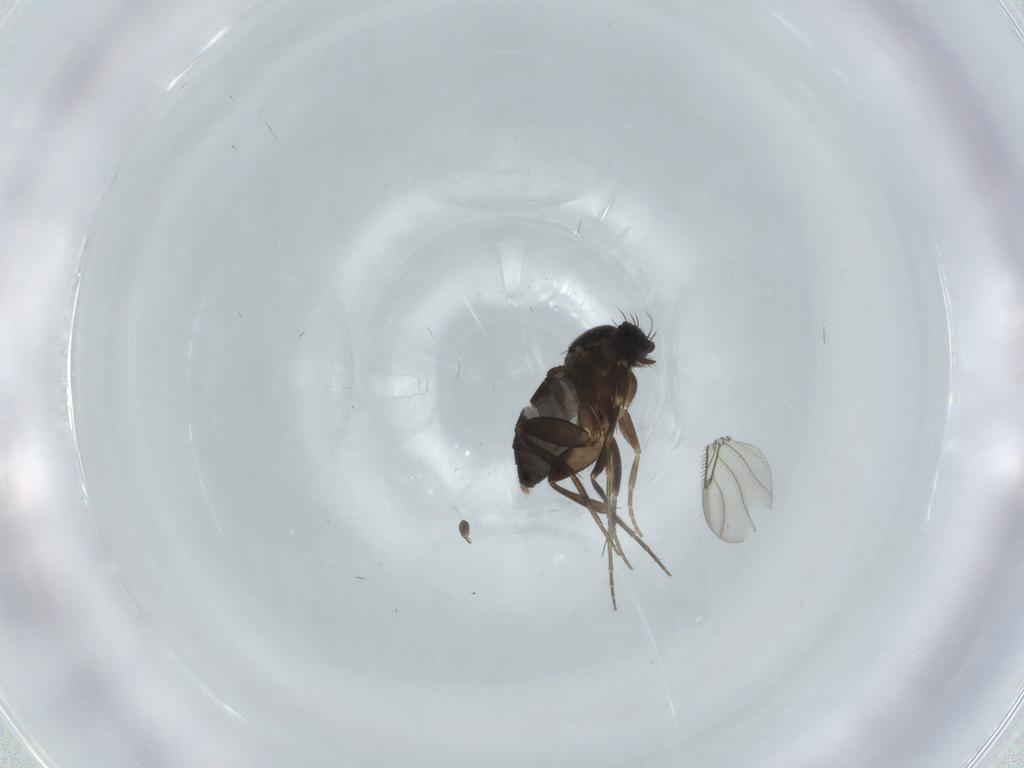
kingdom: Animalia
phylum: Arthropoda
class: Insecta
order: Diptera
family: Phoridae
